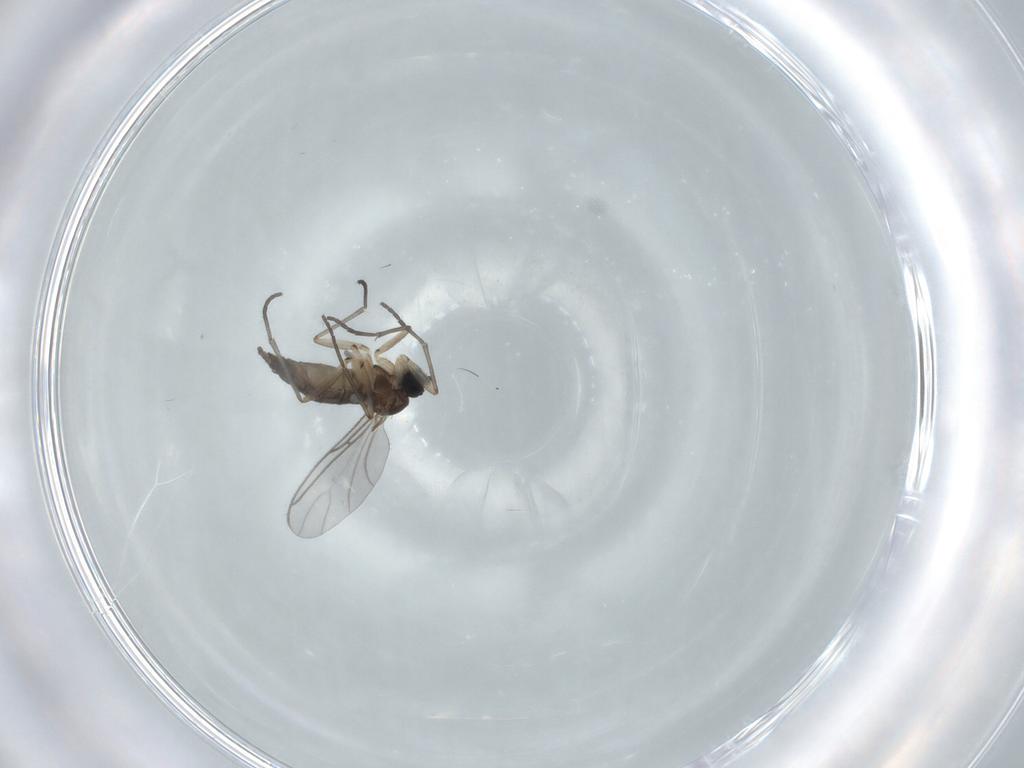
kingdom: Animalia
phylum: Arthropoda
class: Insecta
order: Diptera
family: Sciaridae
